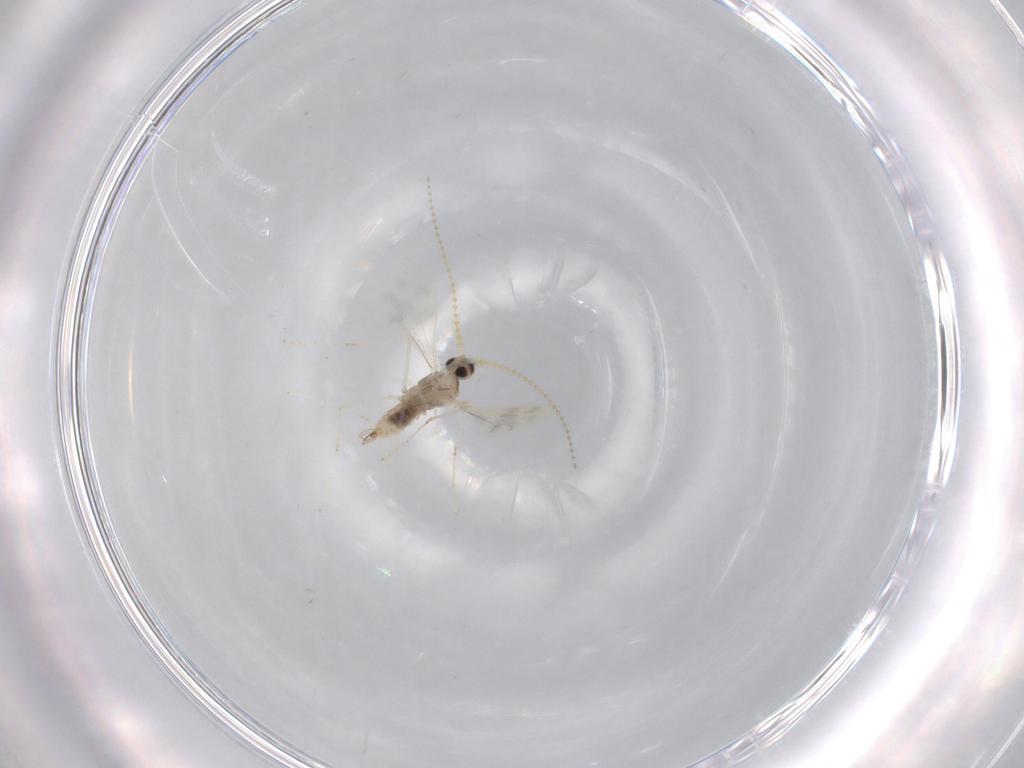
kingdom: Animalia
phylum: Arthropoda
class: Insecta
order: Diptera
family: Cecidomyiidae
